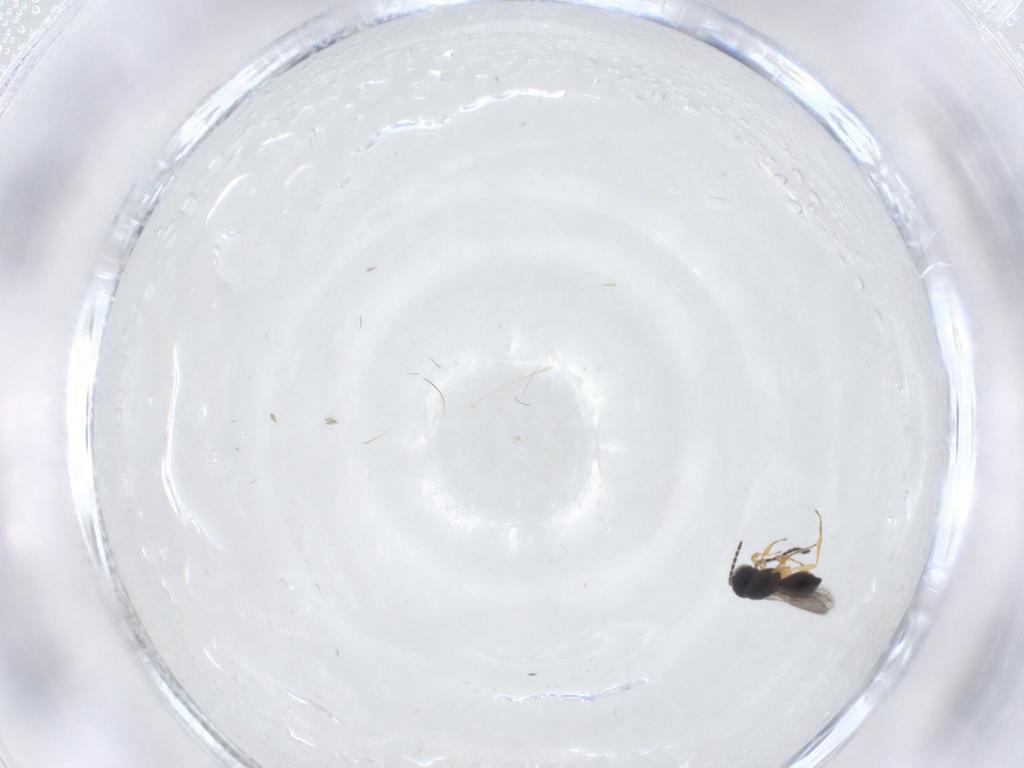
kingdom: Animalia
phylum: Arthropoda
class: Insecta
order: Hymenoptera
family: Scelionidae
